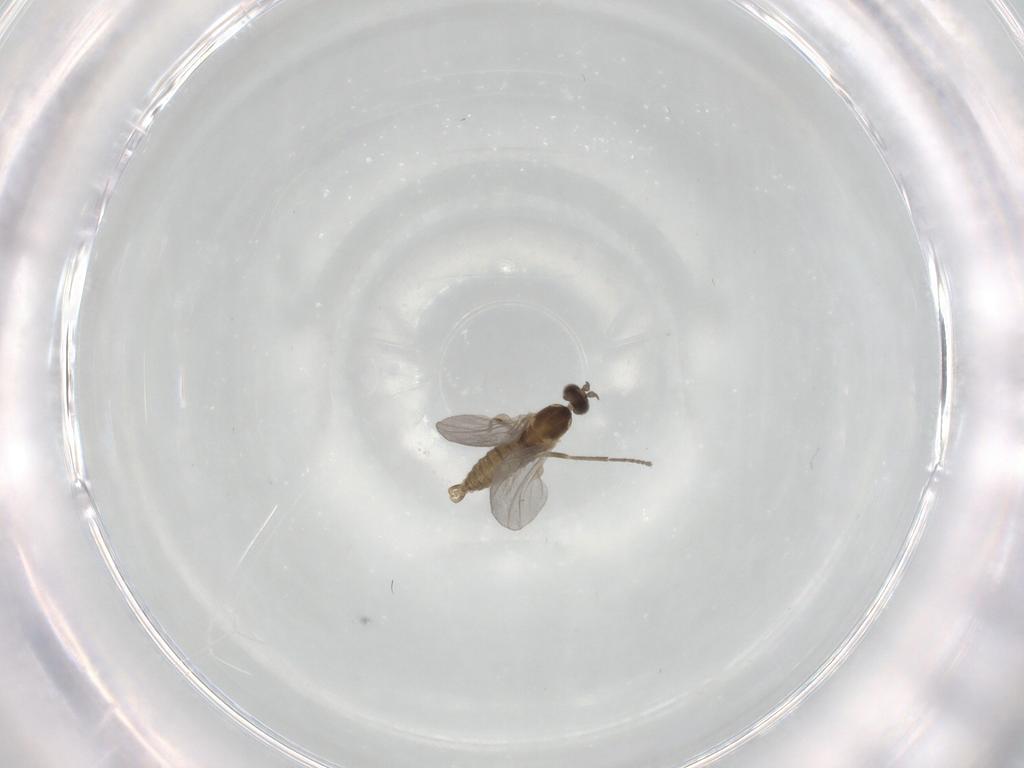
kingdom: Animalia
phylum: Arthropoda
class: Insecta
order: Diptera
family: Cecidomyiidae
